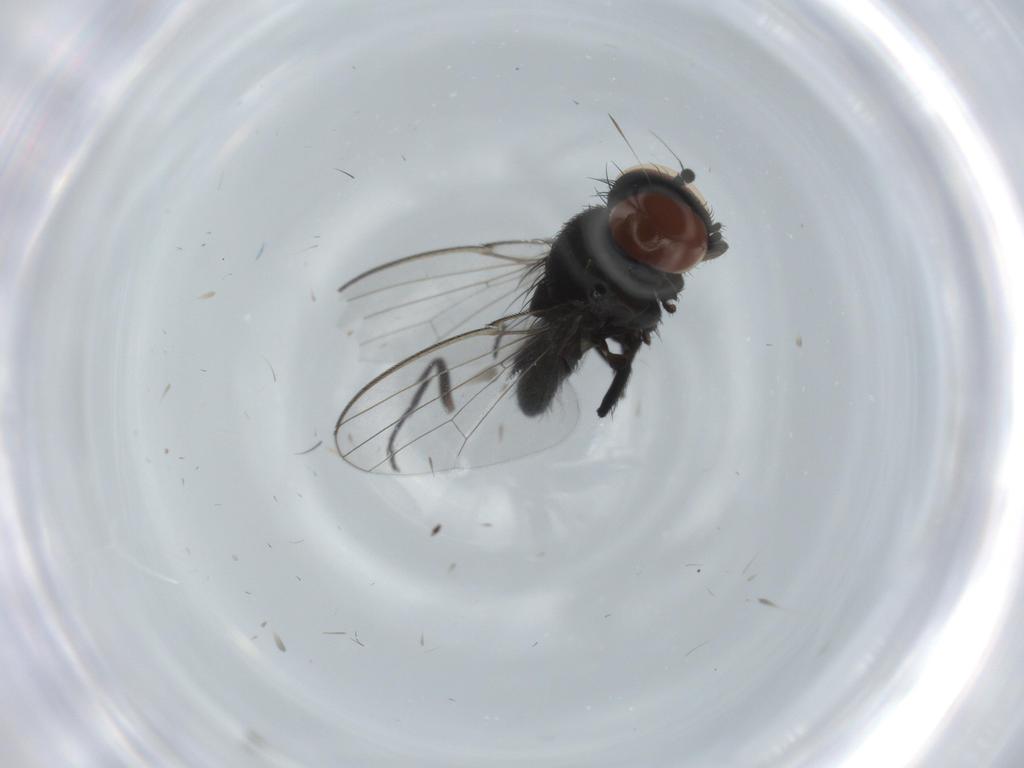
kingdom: Animalia
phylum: Arthropoda
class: Insecta
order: Diptera
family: Milichiidae
